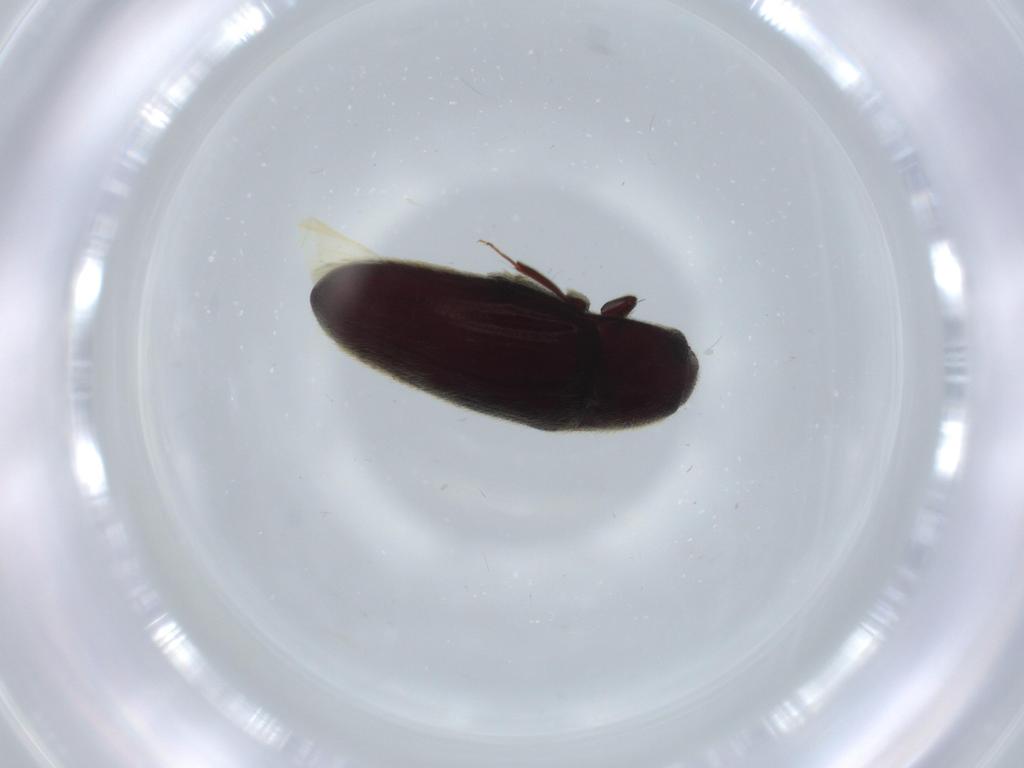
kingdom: Animalia
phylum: Arthropoda
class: Insecta
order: Coleoptera
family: Throscidae
